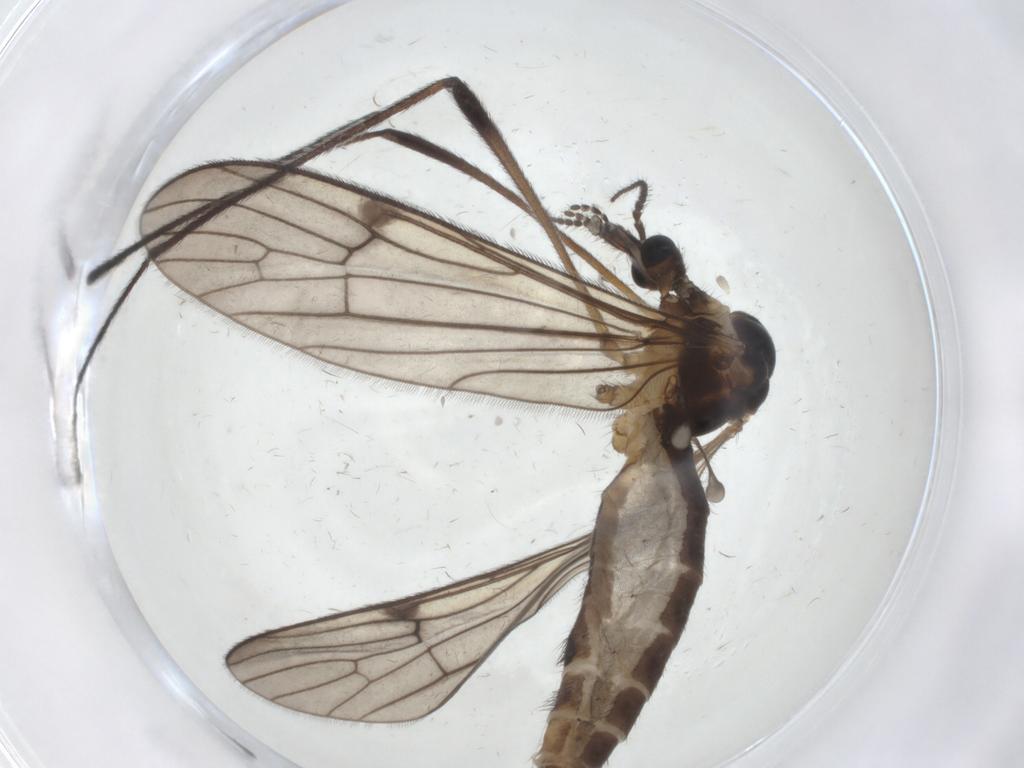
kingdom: Animalia
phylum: Arthropoda
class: Insecta
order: Diptera
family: Limoniidae
